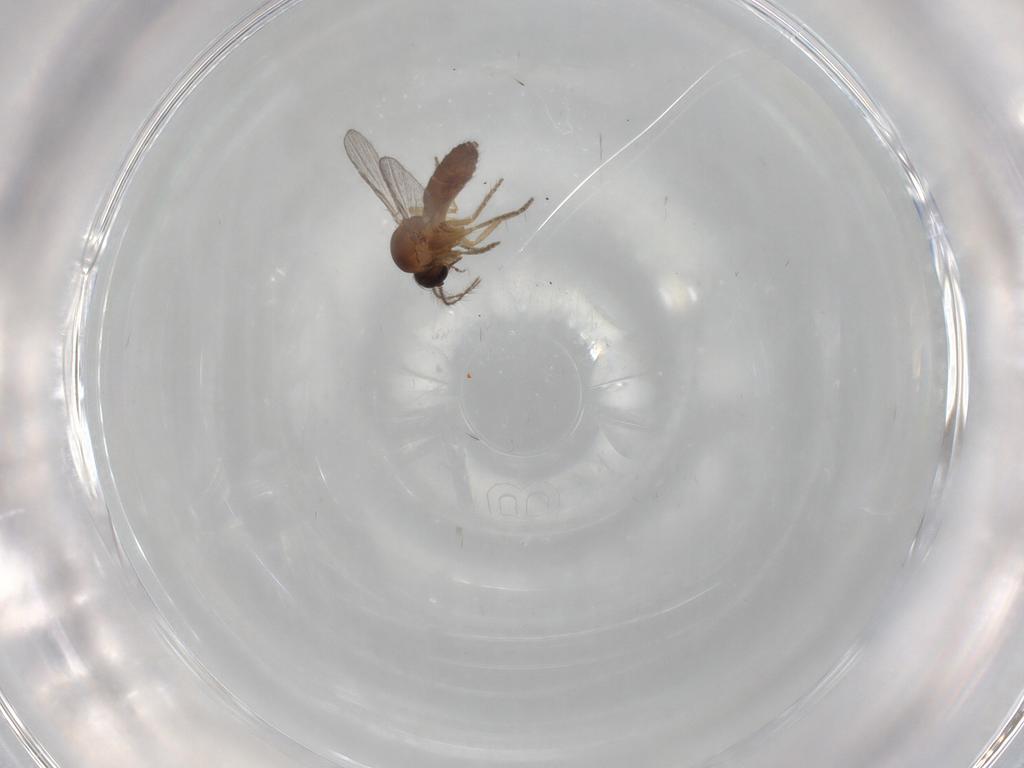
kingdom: Animalia
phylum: Arthropoda
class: Insecta
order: Diptera
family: Ceratopogonidae
